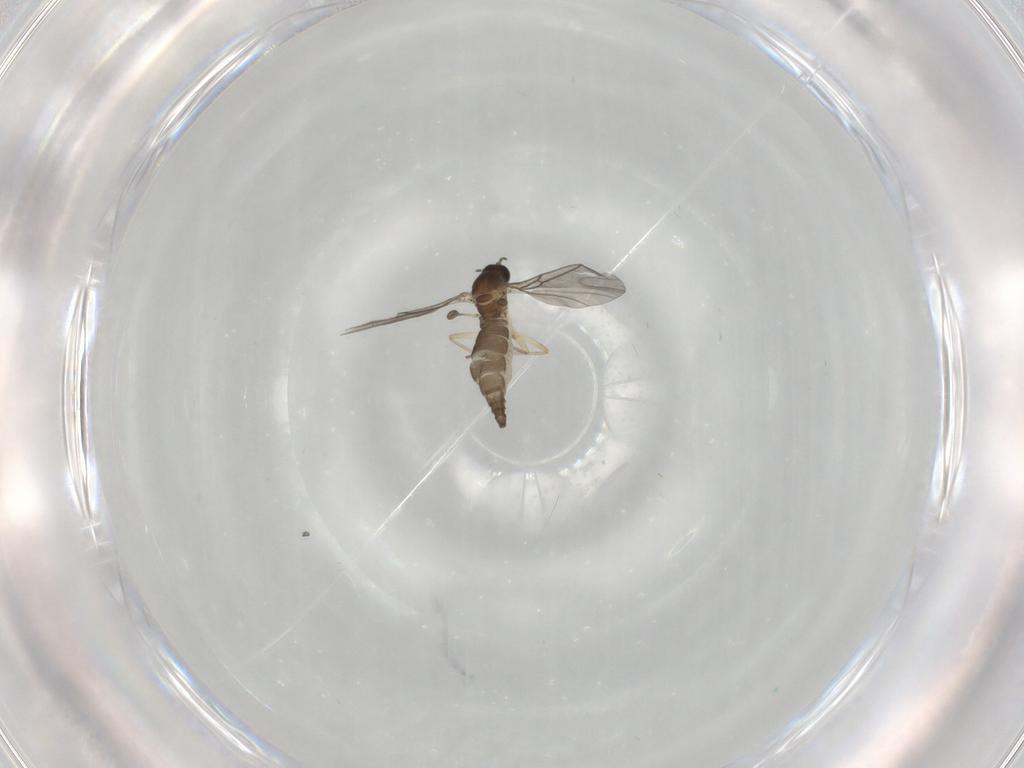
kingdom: Animalia
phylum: Arthropoda
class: Insecta
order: Diptera
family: Sciaridae
